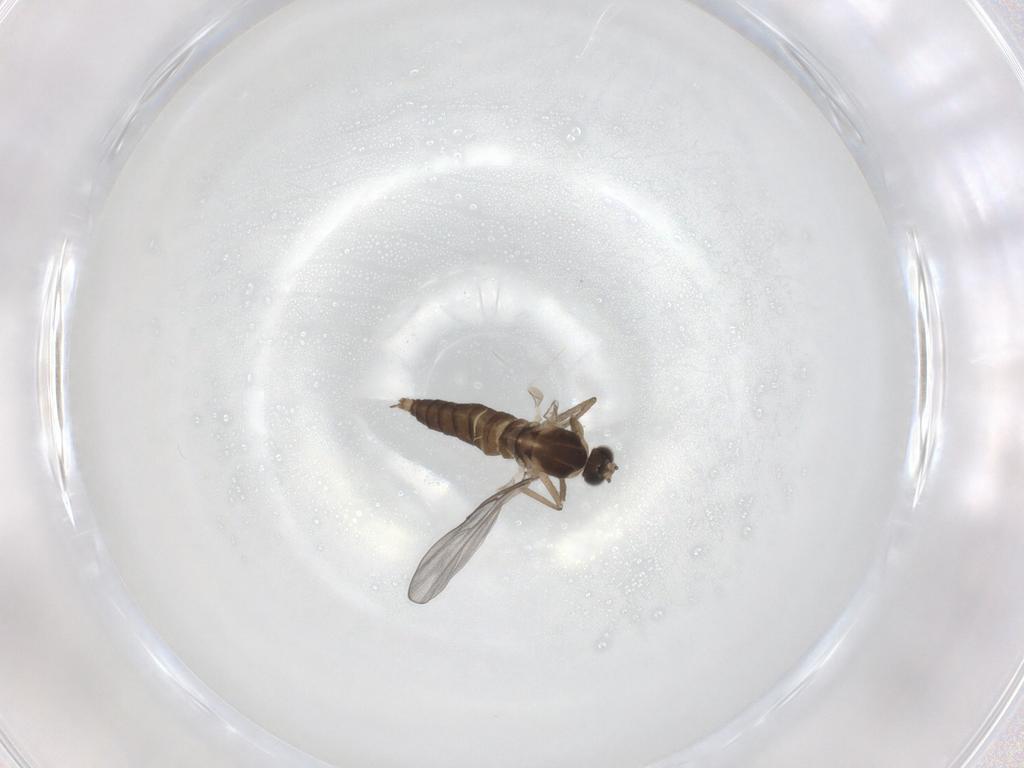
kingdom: Animalia
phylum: Arthropoda
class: Insecta
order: Diptera
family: Cecidomyiidae
